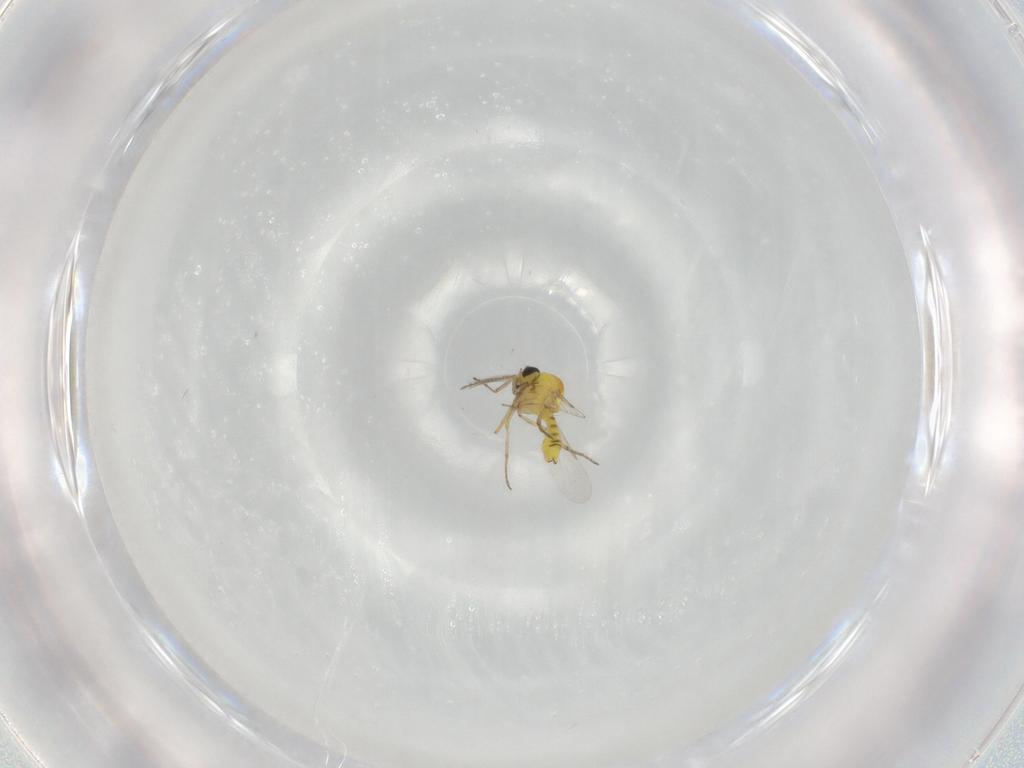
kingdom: Animalia
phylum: Arthropoda
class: Insecta
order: Diptera
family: Ceratopogonidae
